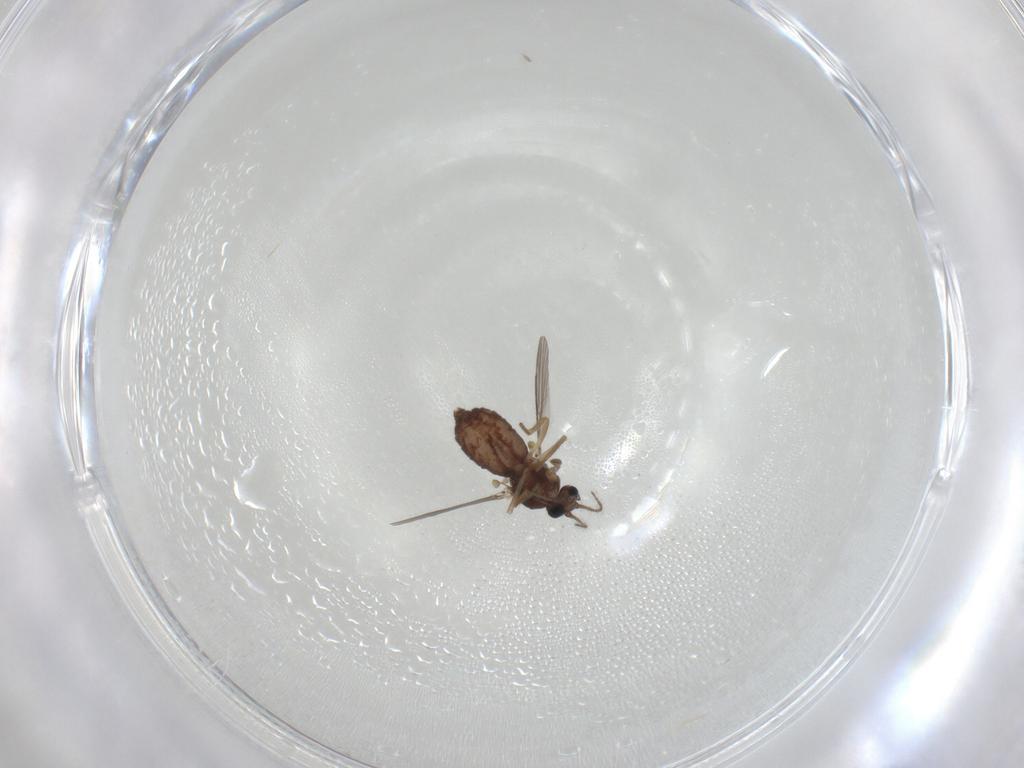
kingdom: Animalia
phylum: Arthropoda
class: Insecta
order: Diptera
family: Ceratopogonidae
